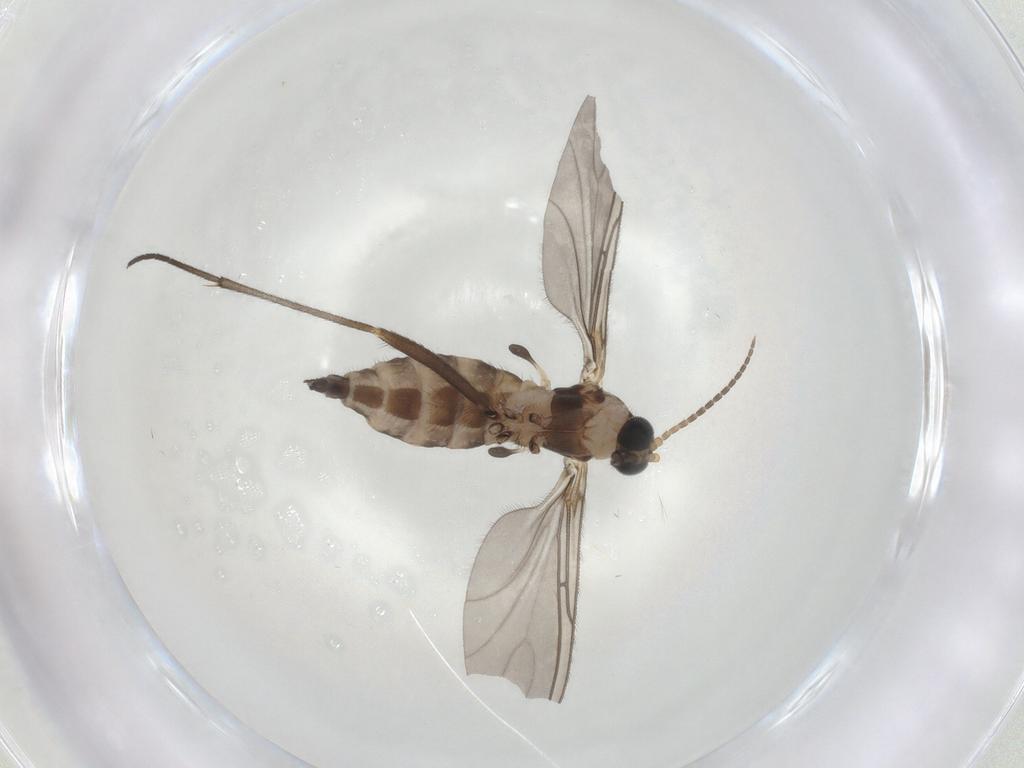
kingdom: Animalia
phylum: Arthropoda
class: Insecta
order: Diptera
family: Sciaridae
